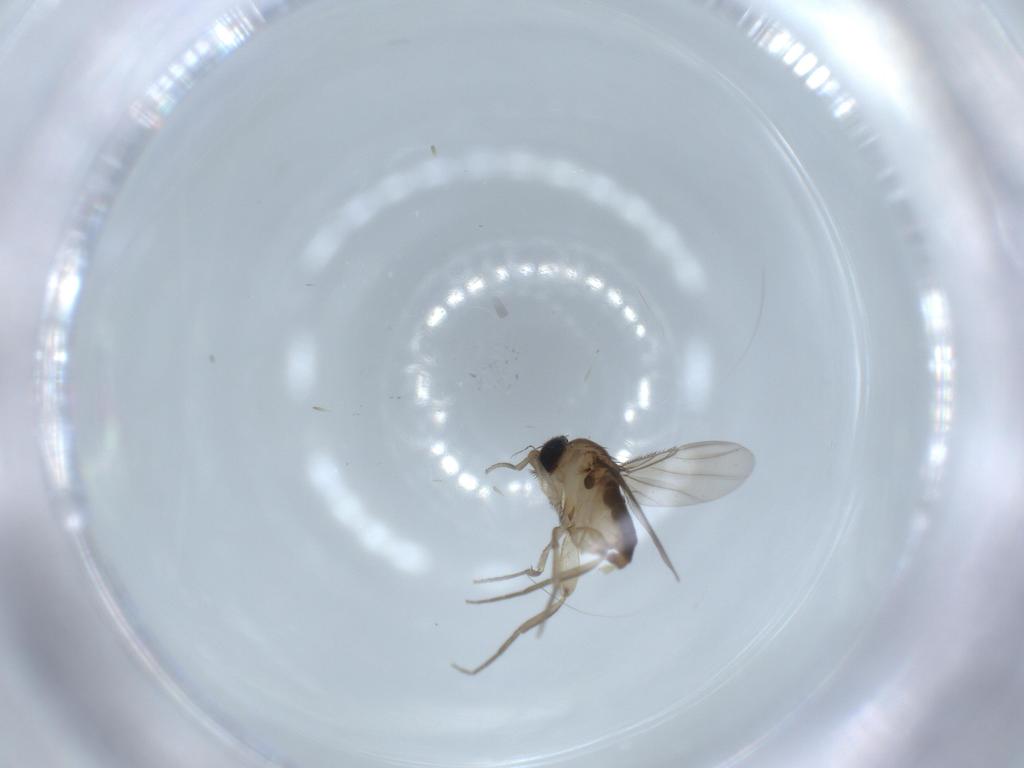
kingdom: Animalia
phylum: Arthropoda
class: Insecta
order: Diptera
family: Phoridae
